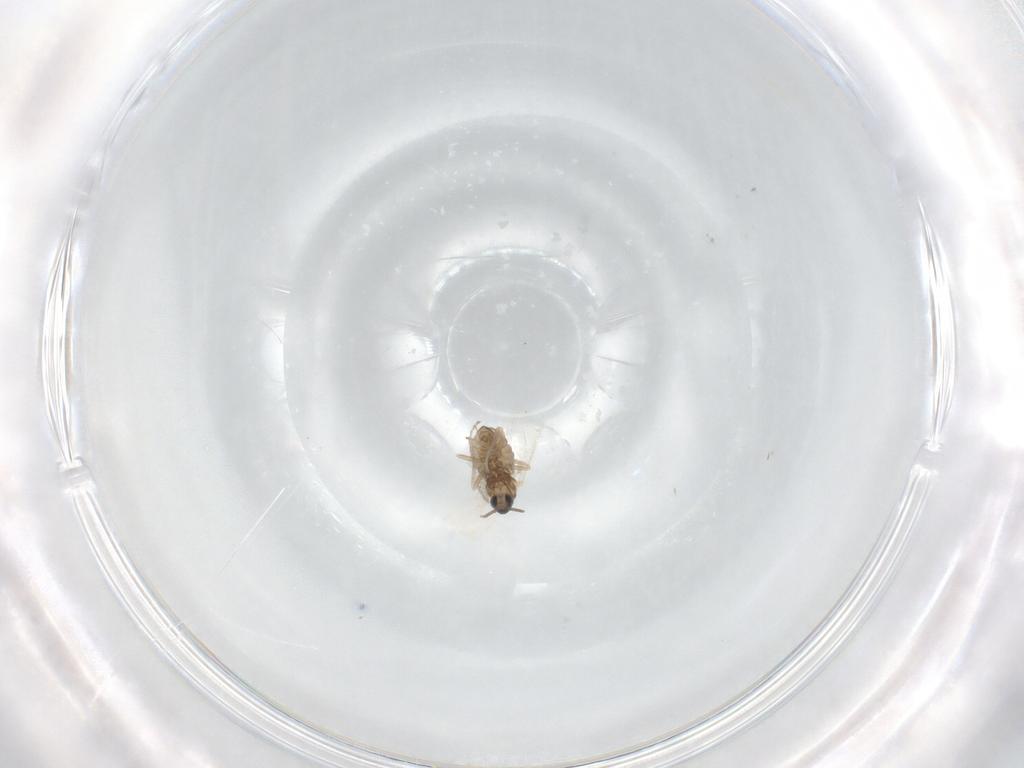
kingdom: Animalia
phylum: Arthropoda
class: Insecta
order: Diptera
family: Cecidomyiidae
